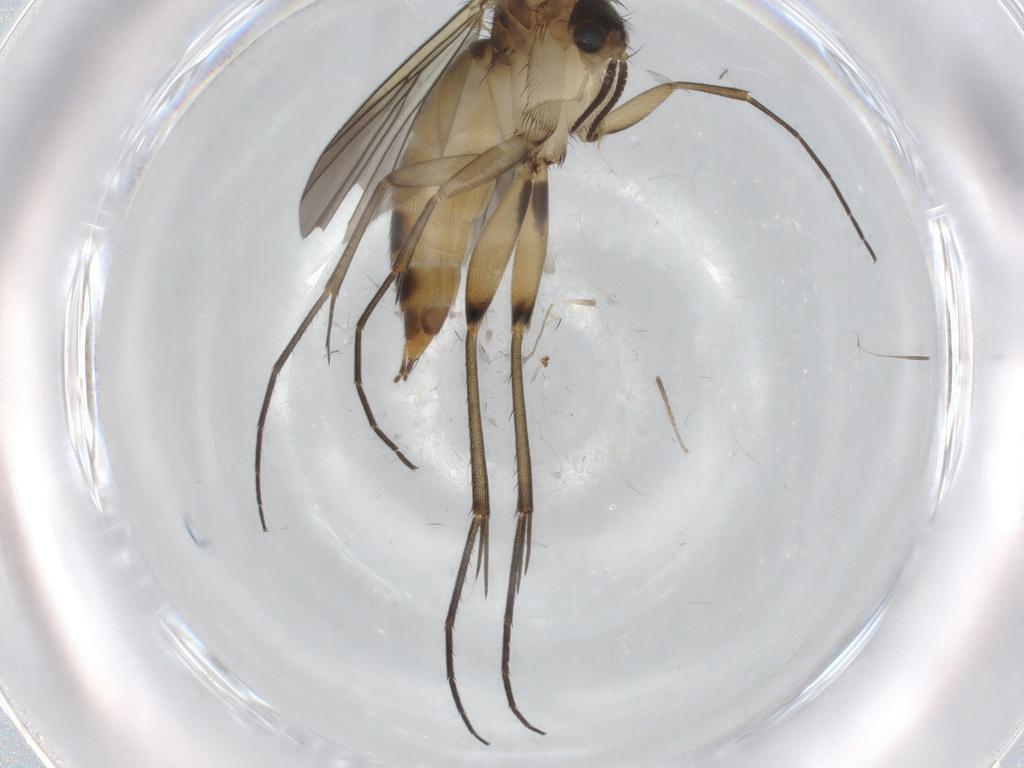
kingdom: Animalia
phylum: Arthropoda
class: Insecta
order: Diptera
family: Mycetophilidae
